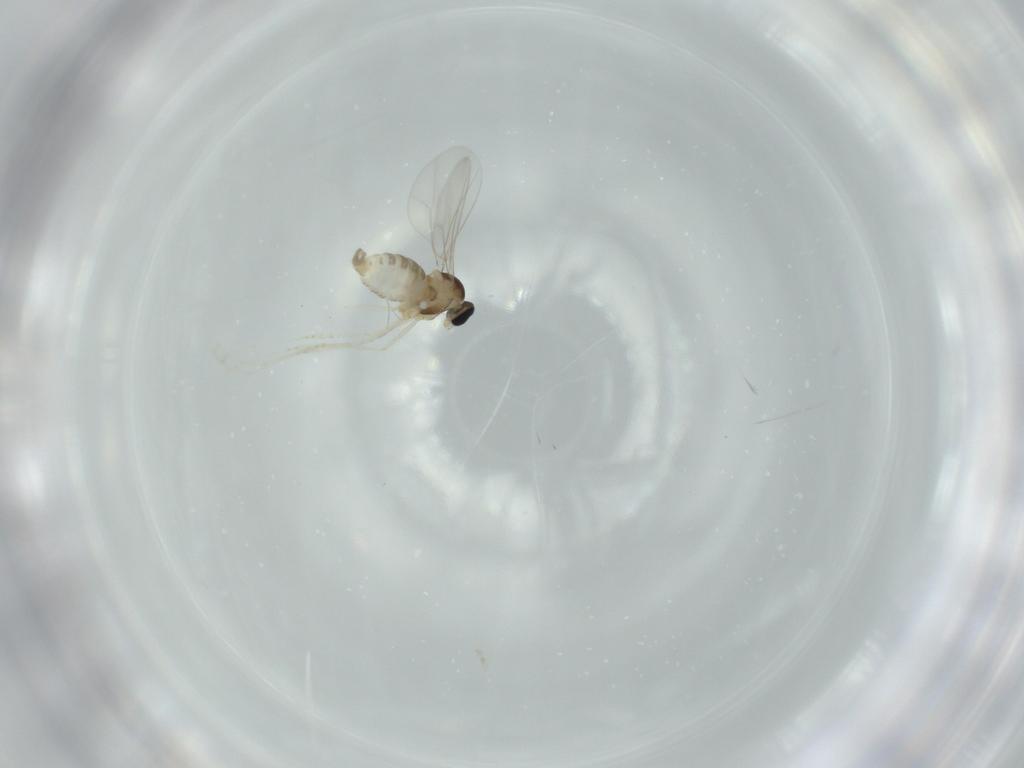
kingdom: Animalia
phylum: Arthropoda
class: Insecta
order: Diptera
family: Cecidomyiidae
